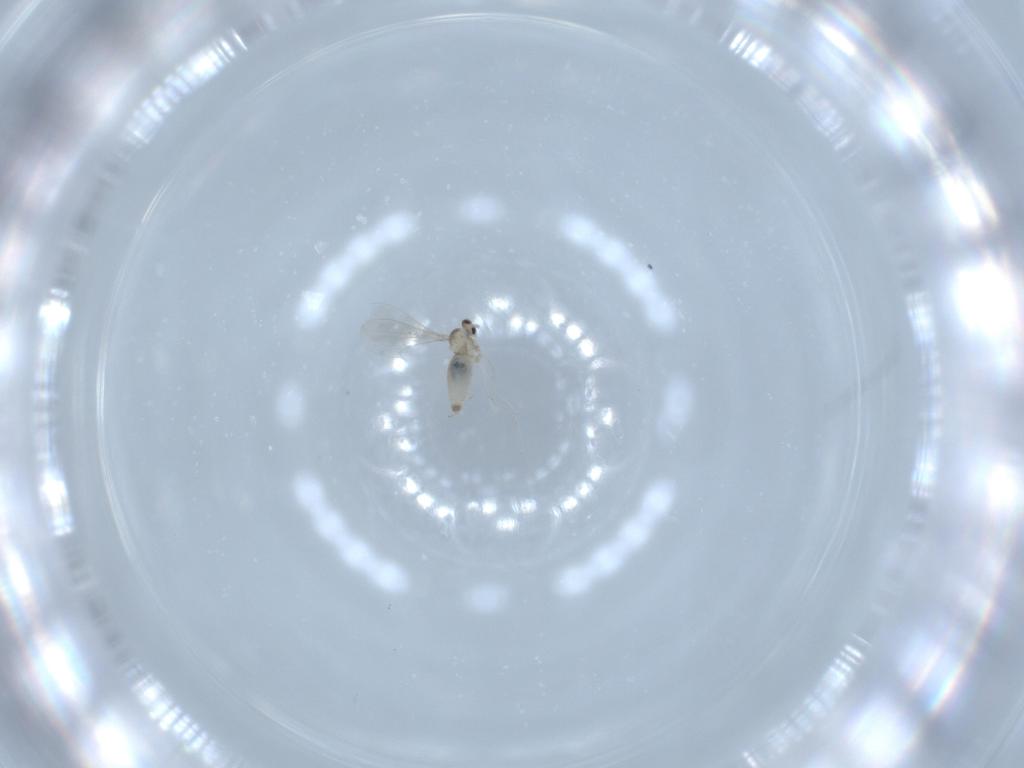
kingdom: Animalia
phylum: Arthropoda
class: Insecta
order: Diptera
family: Cecidomyiidae
